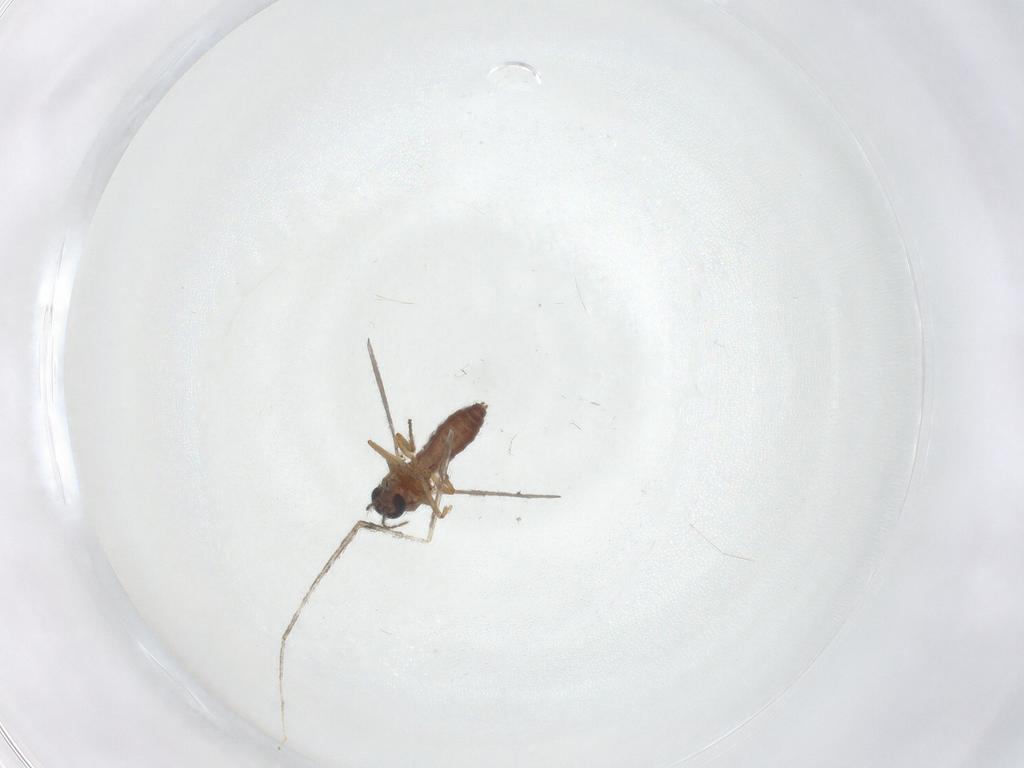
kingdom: Animalia
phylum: Arthropoda
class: Insecta
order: Diptera
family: Ceratopogonidae
